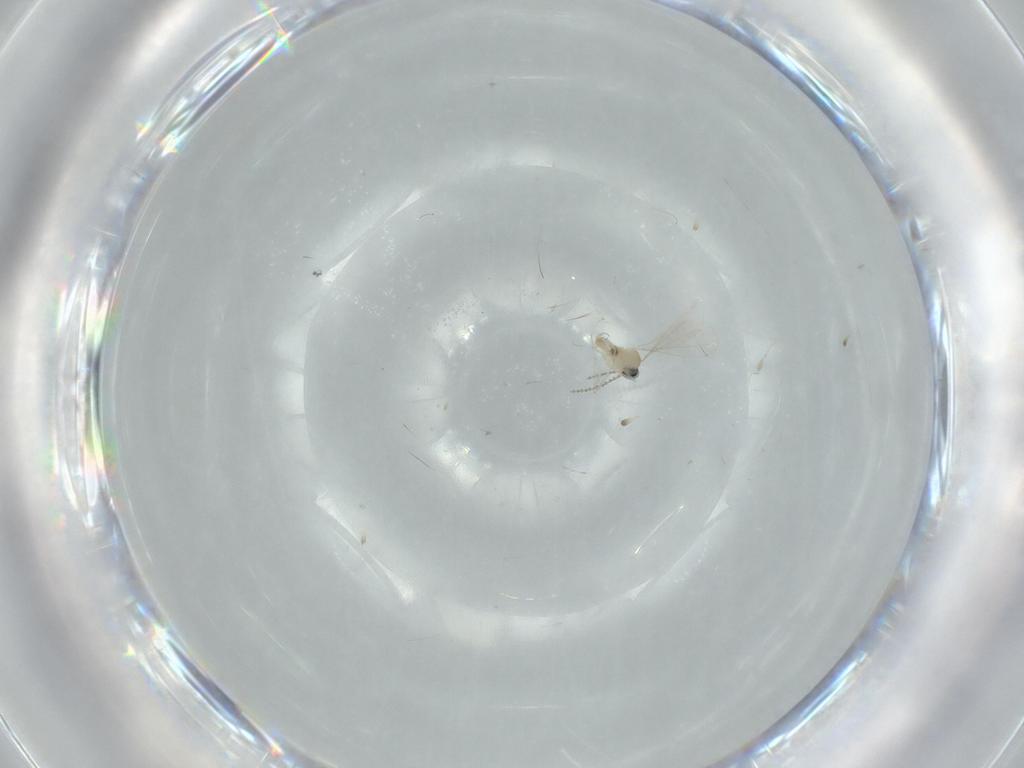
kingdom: Animalia
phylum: Arthropoda
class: Insecta
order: Diptera
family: Cecidomyiidae
